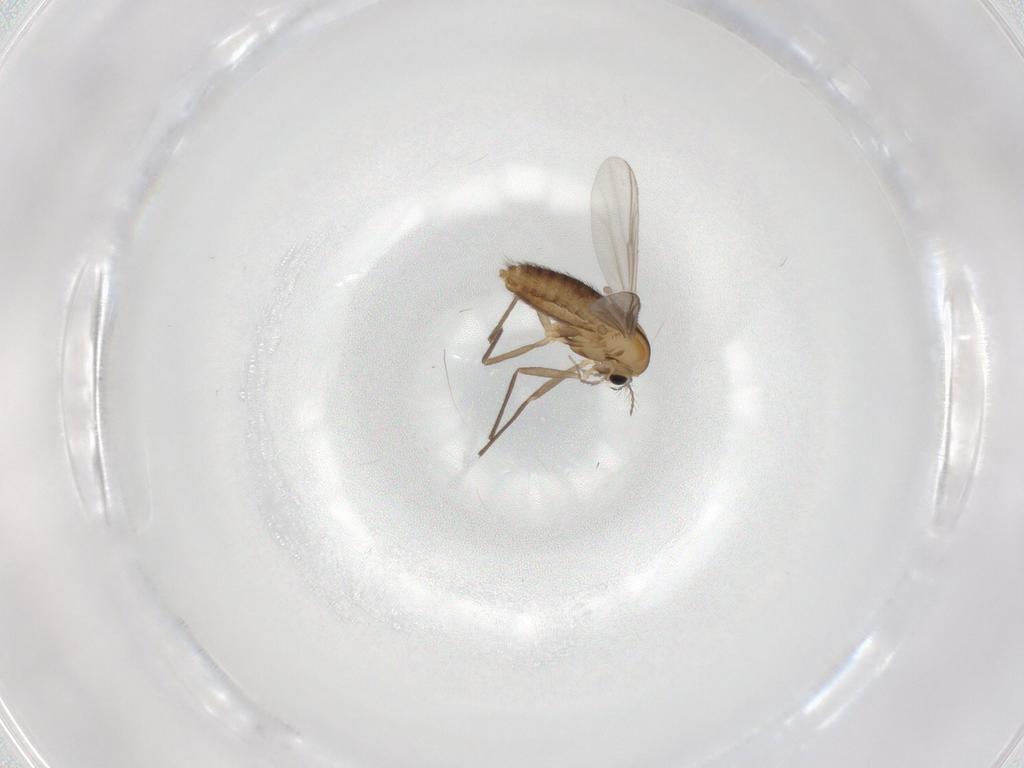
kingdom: Animalia
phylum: Arthropoda
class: Insecta
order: Diptera
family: Chironomidae
